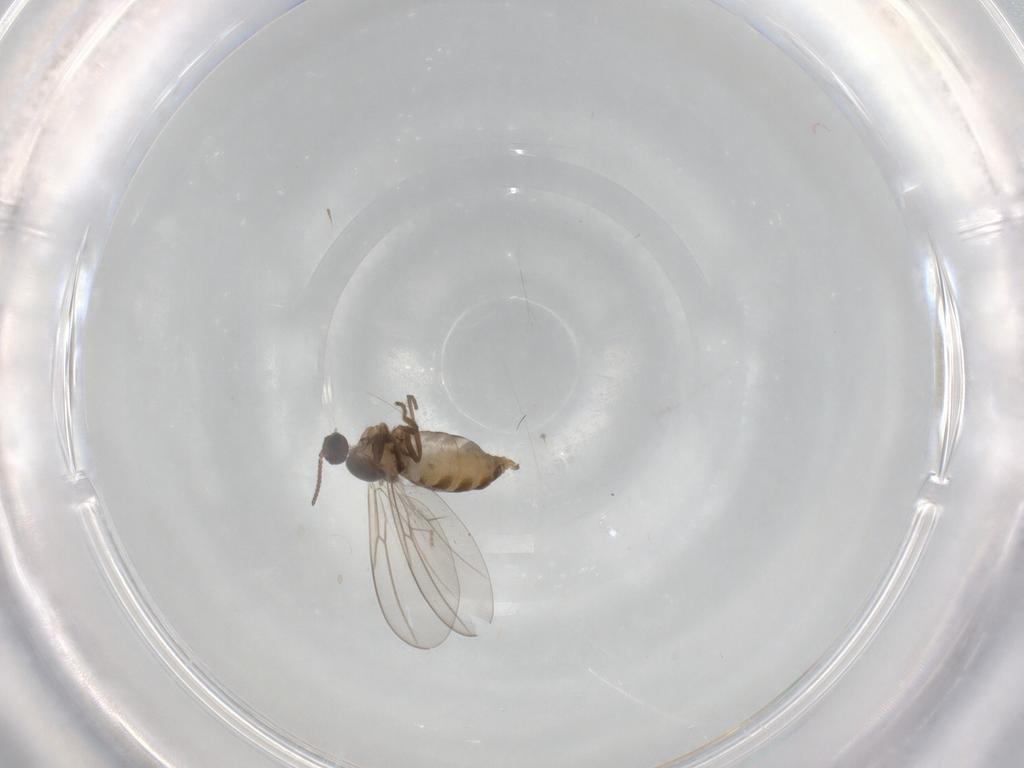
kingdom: Animalia
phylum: Arthropoda
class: Insecta
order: Diptera
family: Cecidomyiidae
